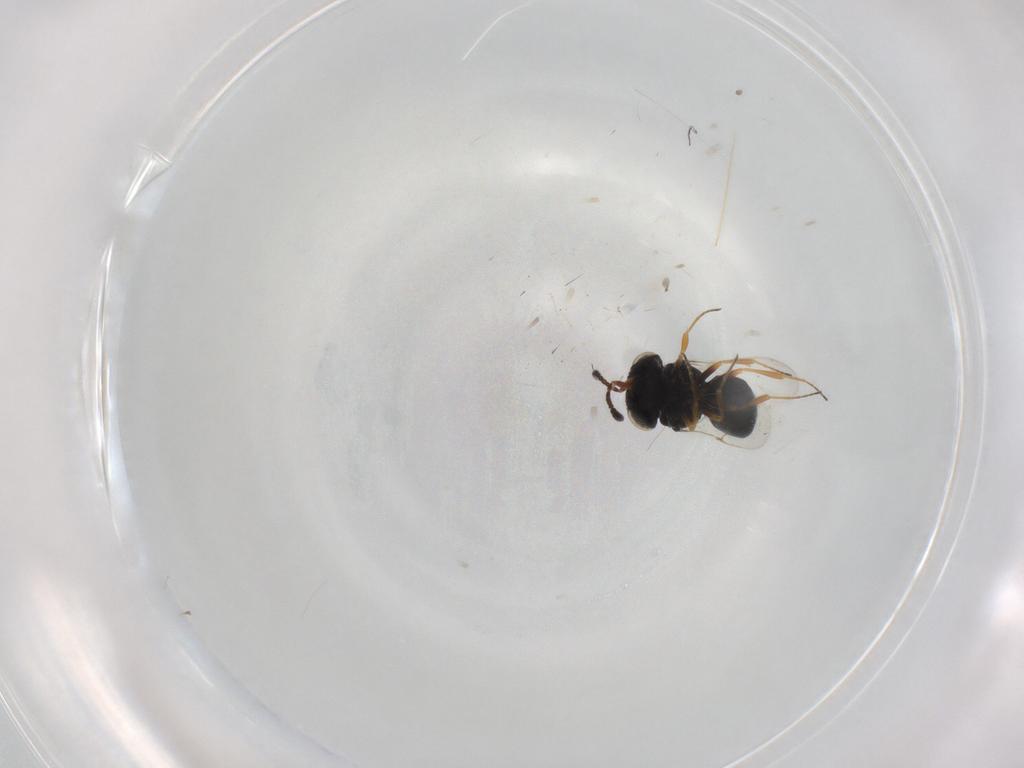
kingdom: Animalia
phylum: Arthropoda
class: Insecta
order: Hymenoptera
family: Scelionidae
